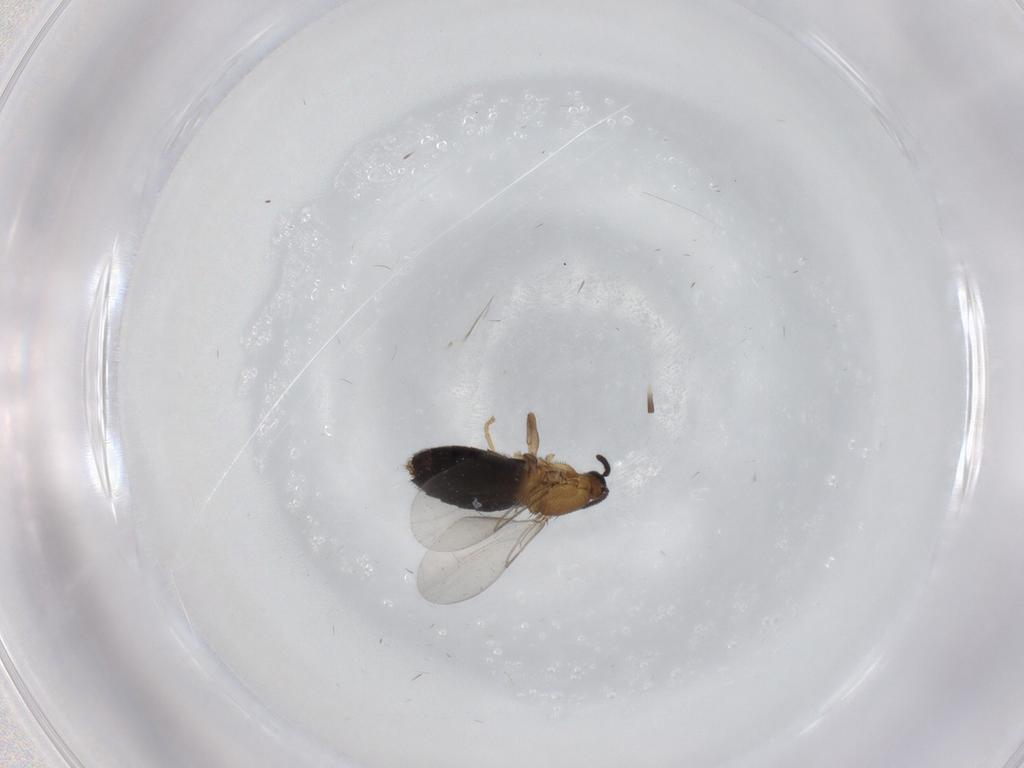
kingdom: Animalia
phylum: Arthropoda
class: Insecta
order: Diptera
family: Scatopsidae
